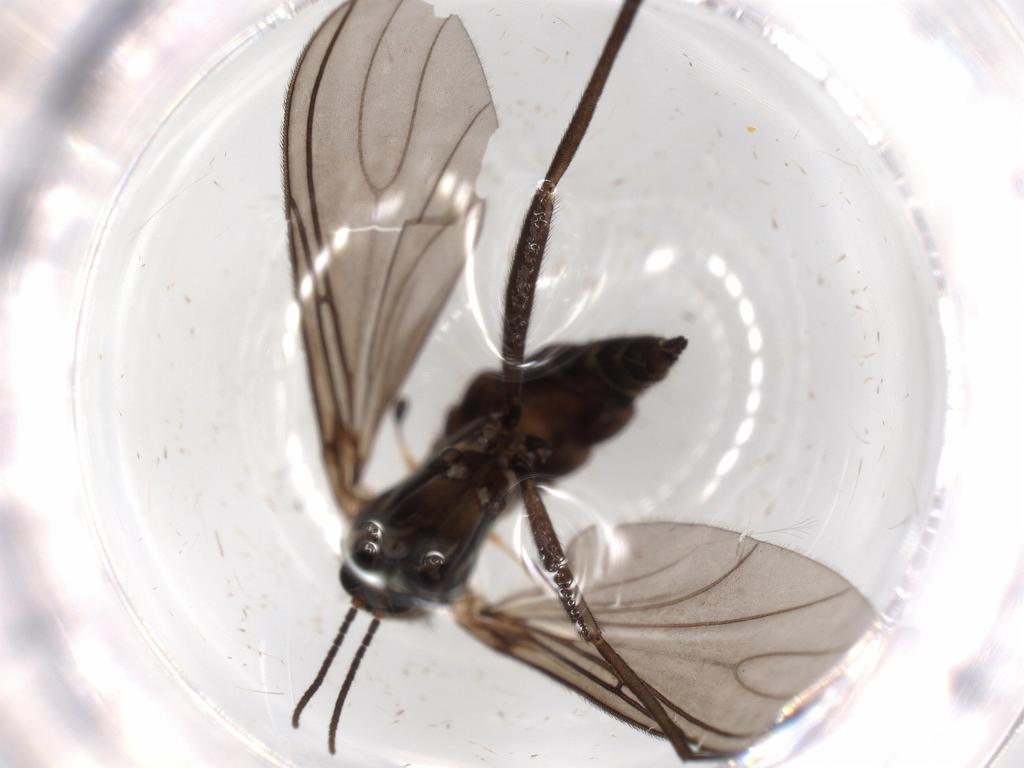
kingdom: Animalia
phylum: Arthropoda
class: Insecta
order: Diptera
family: Sciaridae
